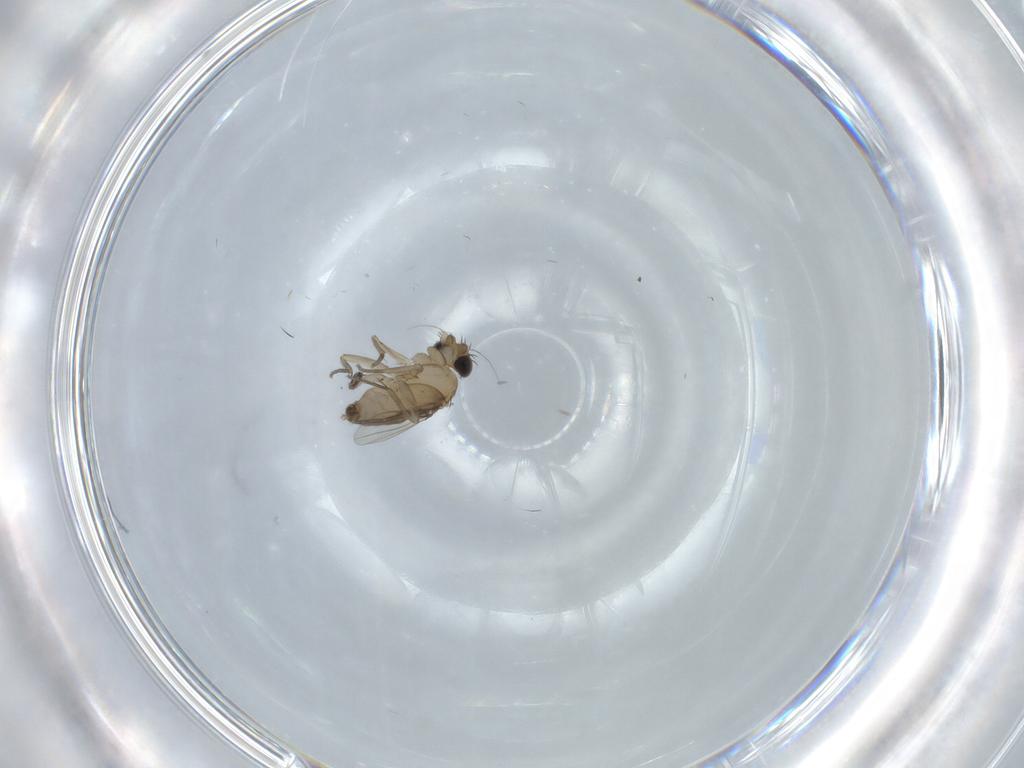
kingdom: Animalia
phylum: Arthropoda
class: Insecta
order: Diptera
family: Phoridae
